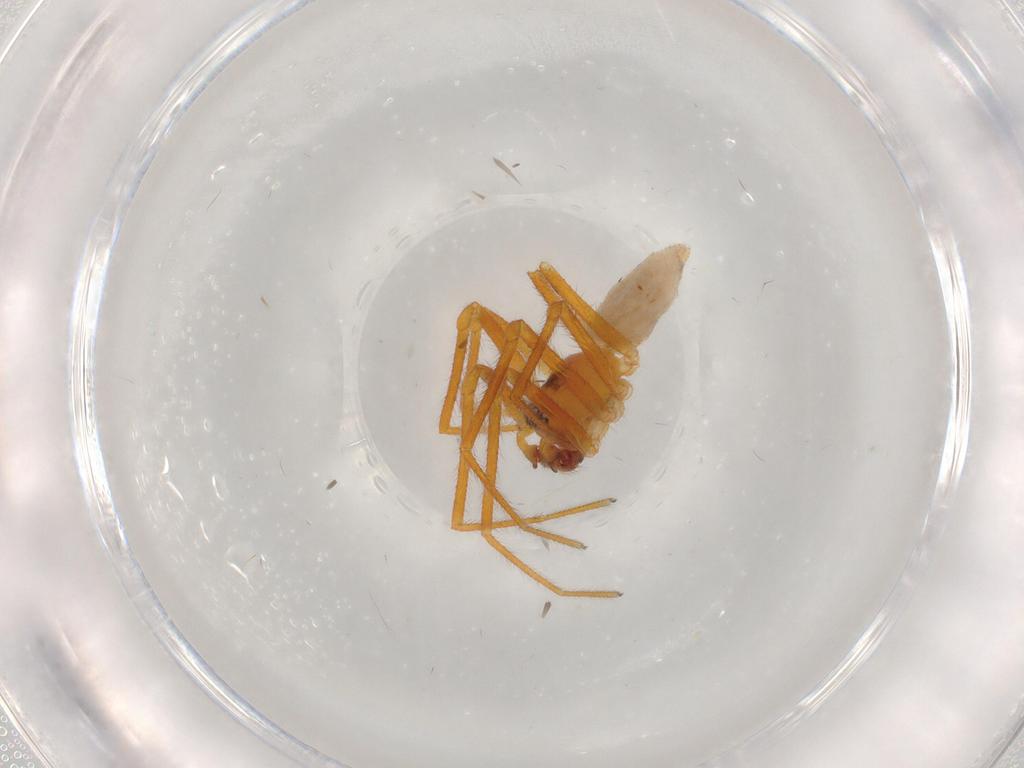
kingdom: Animalia
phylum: Arthropoda
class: Arachnida
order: Araneae
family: Linyphiidae
